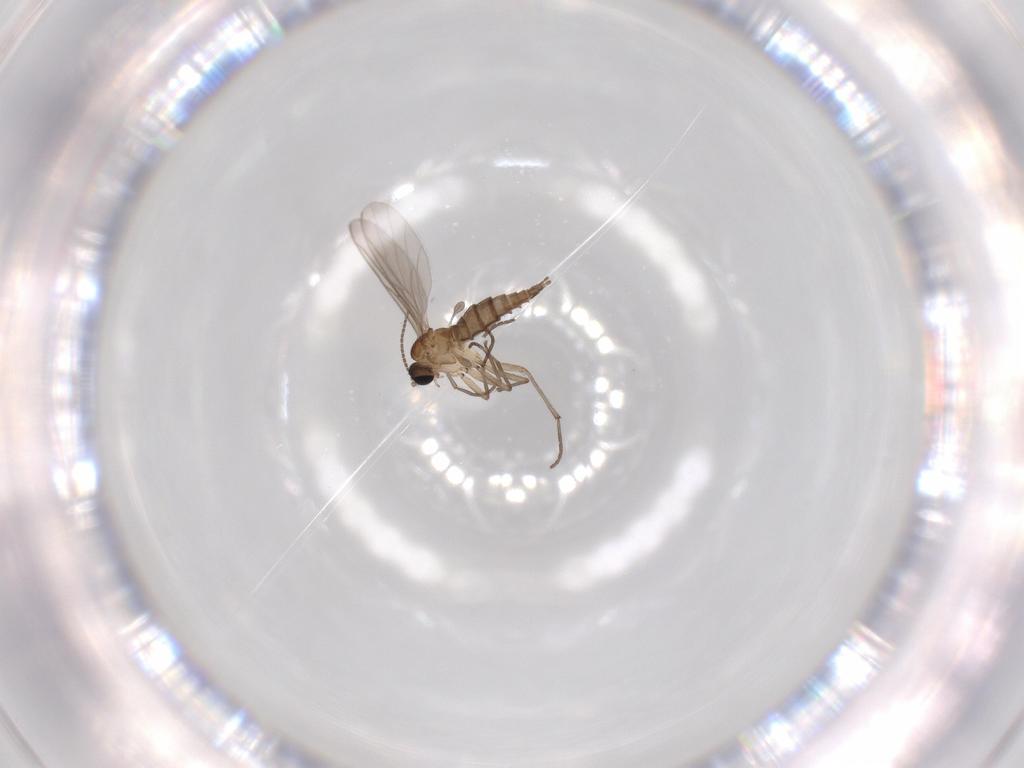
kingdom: Animalia
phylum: Arthropoda
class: Insecta
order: Diptera
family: Sciaridae
